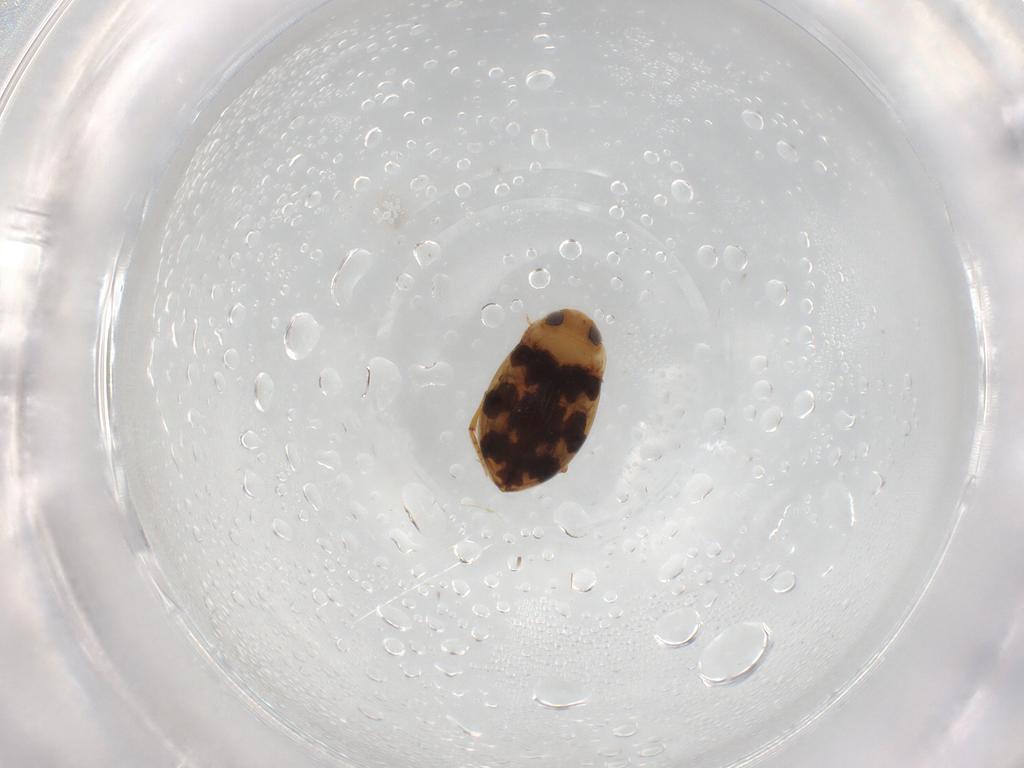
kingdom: Animalia
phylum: Arthropoda
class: Insecta
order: Coleoptera
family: Dytiscidae
